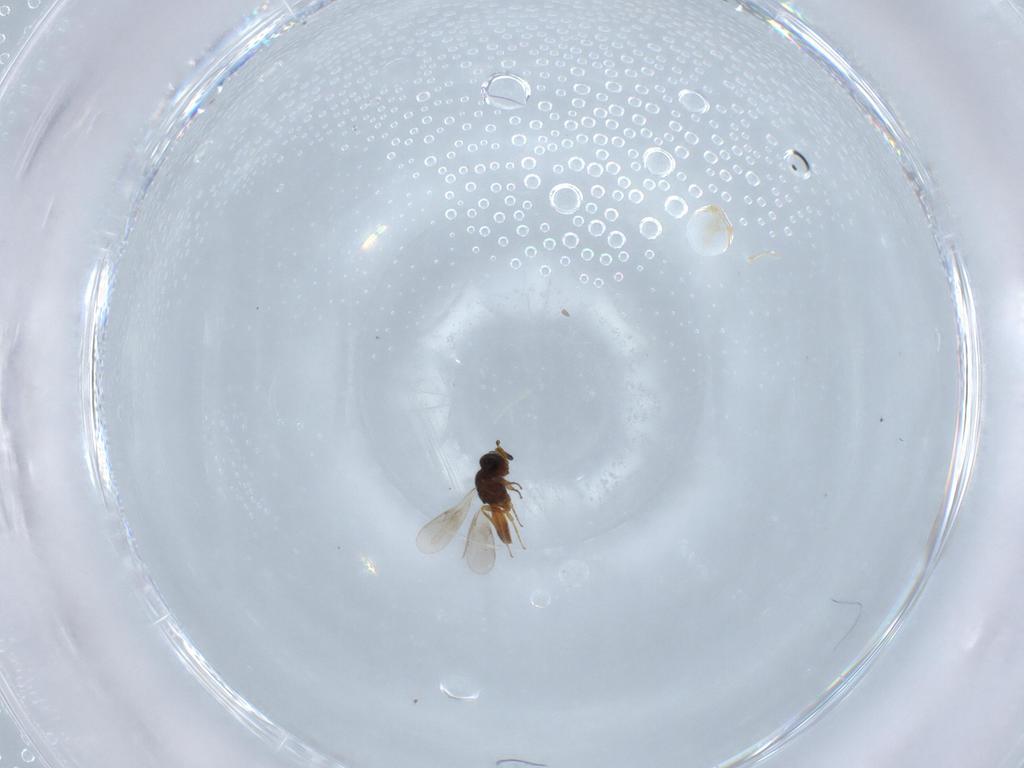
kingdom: Animalia
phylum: Arthropoda
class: Insecta
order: Hymenoptera
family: Scelionidae
